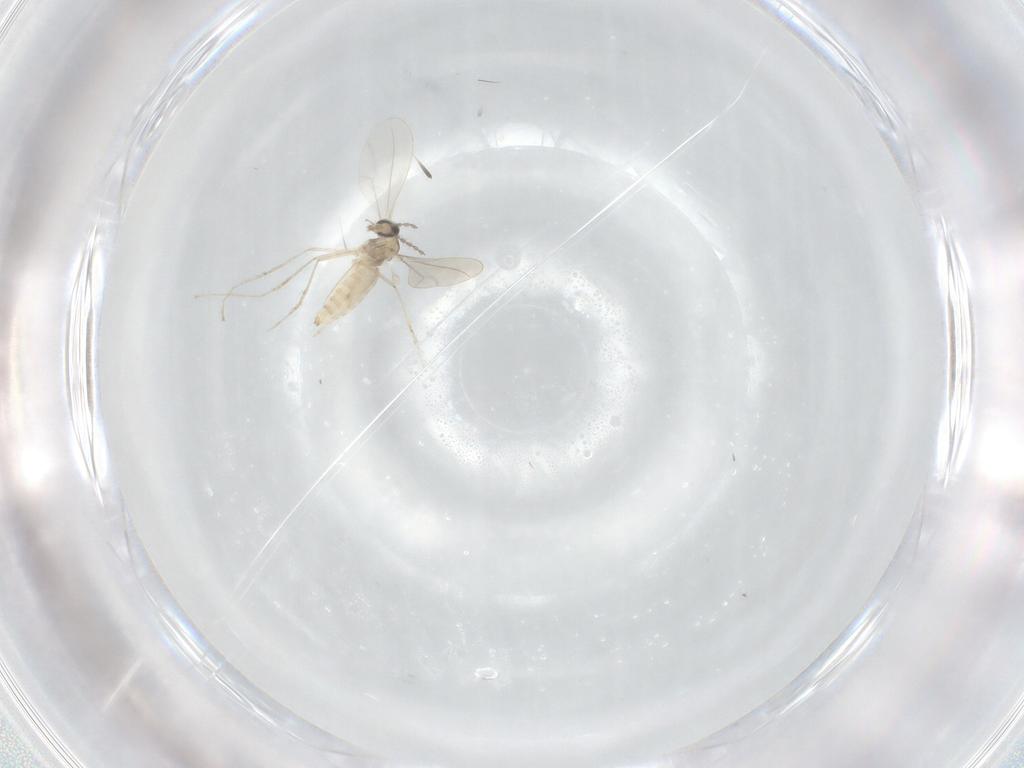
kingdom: Animalia
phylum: Arthropoda
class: Insecta
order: Diptera
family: Cecidomyiidae
